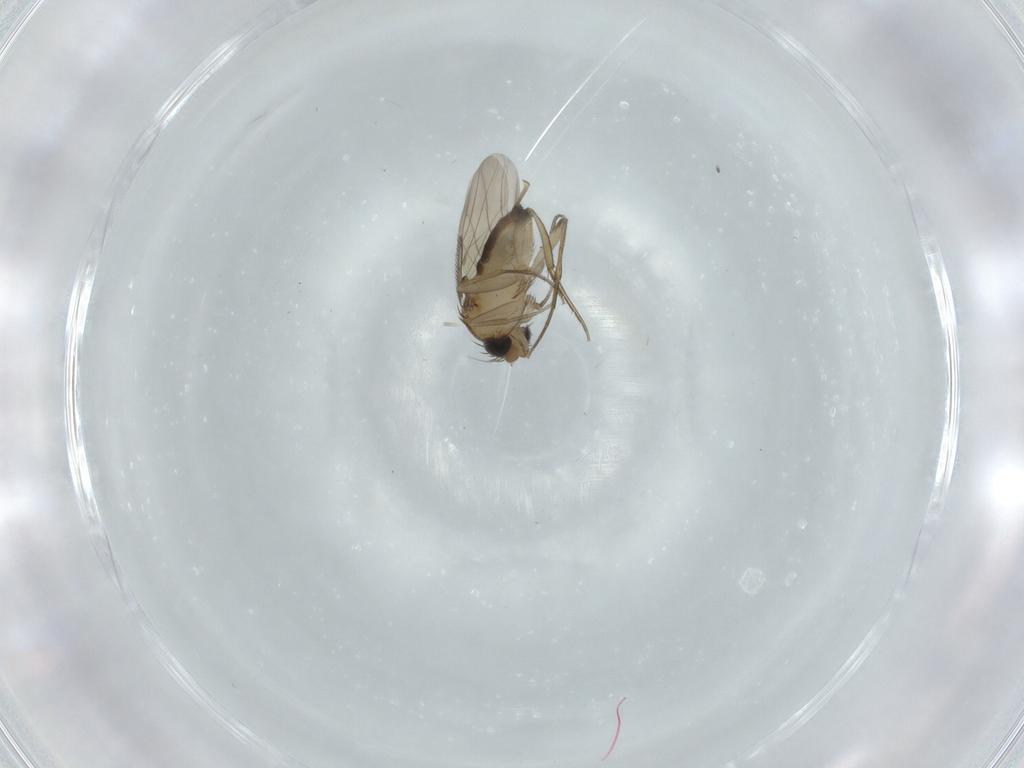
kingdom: Animalia
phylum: Arthropoda
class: Insecta
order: Diptera
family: Phoridae
